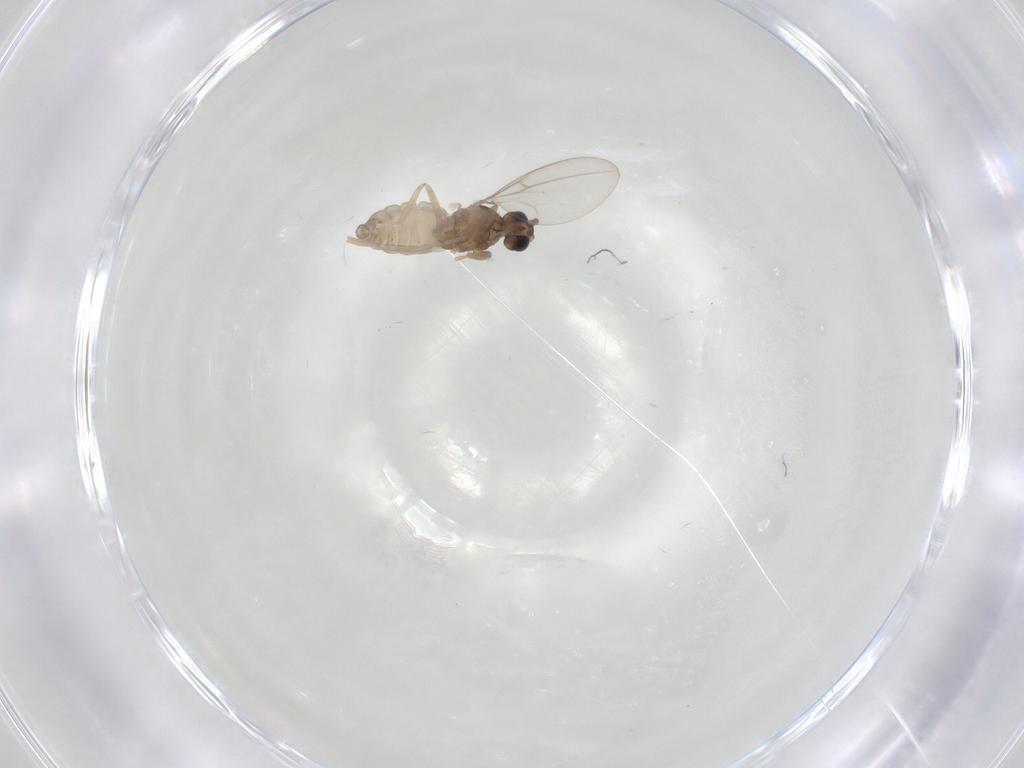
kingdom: Animalia
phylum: Arthropoda
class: Insecta
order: Diptera
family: Cecidomyiidae
